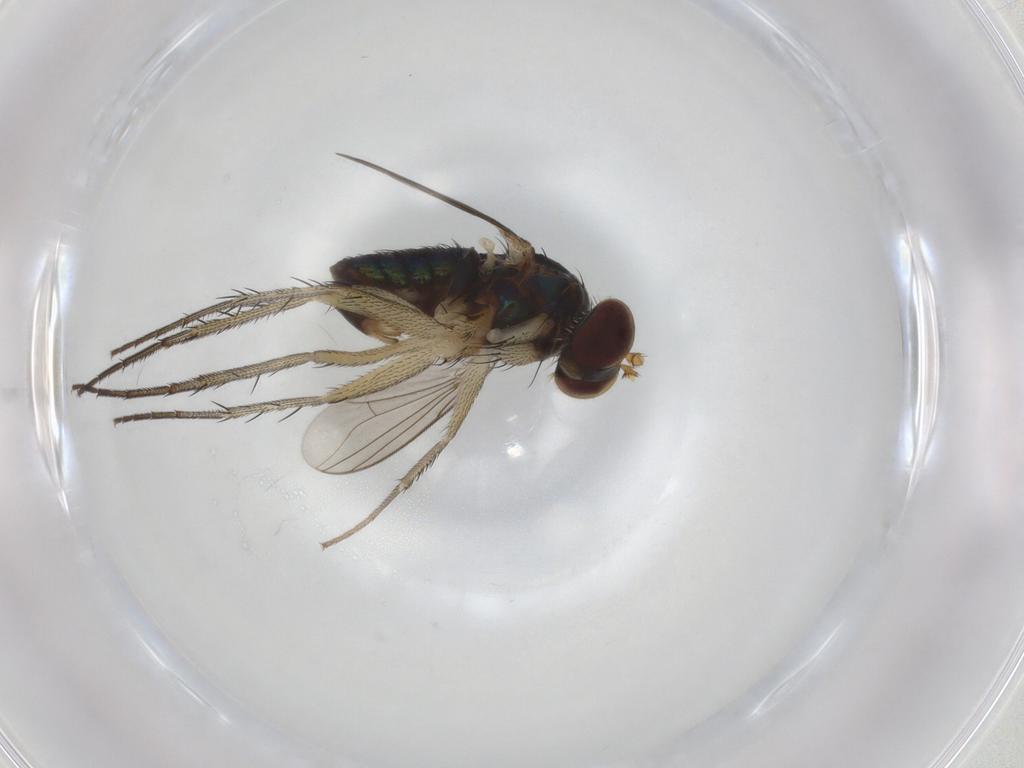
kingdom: Animalia
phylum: Arthropoda
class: Insecta
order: Diptera
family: Dolichopodidae
